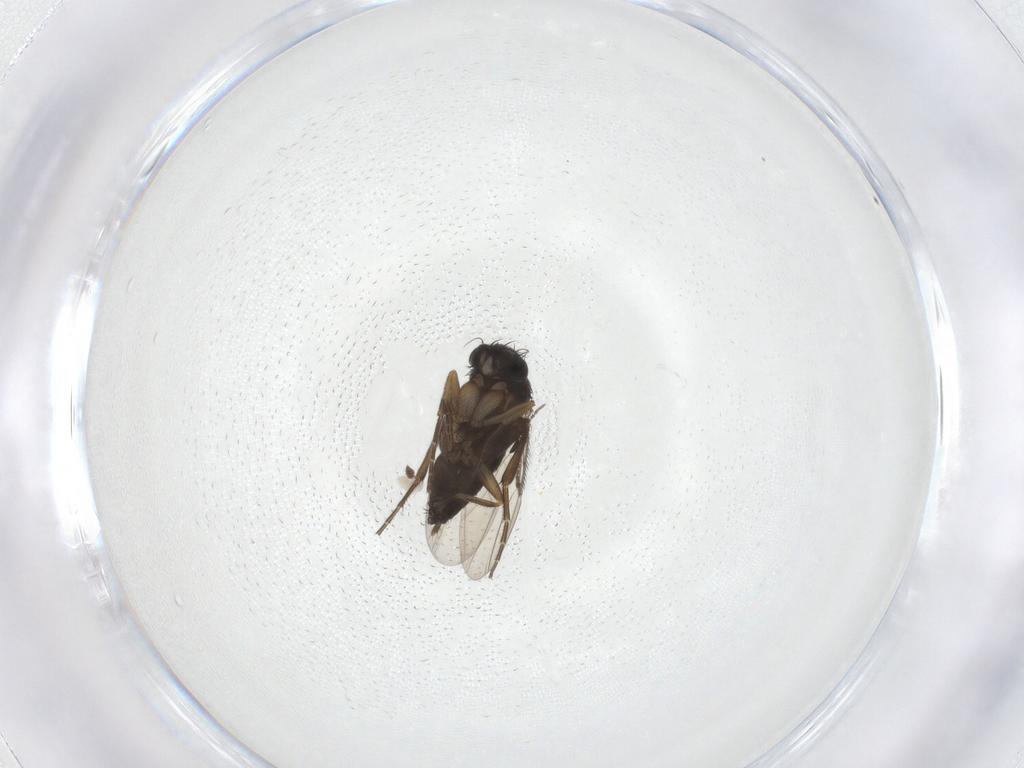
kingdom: Animalia
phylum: Arthropoda
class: Insecta
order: Diptera
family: Phoridae
